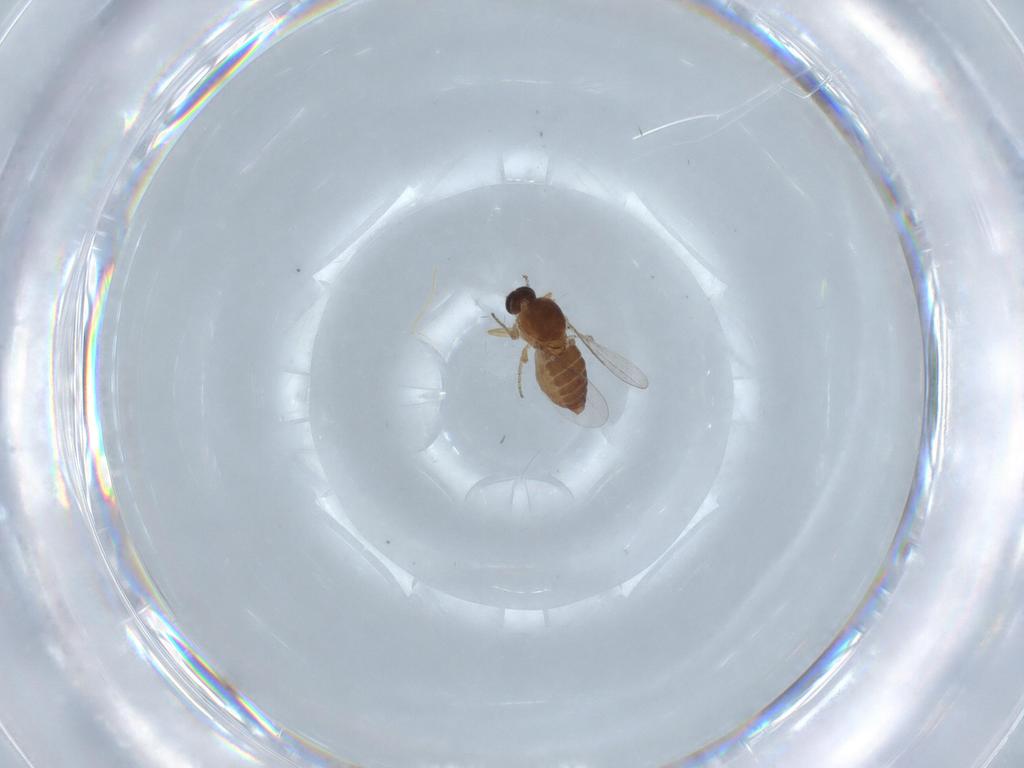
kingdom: Animalia
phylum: Arthropoda
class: Insecta
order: Diptera
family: Ceratopogonidae
